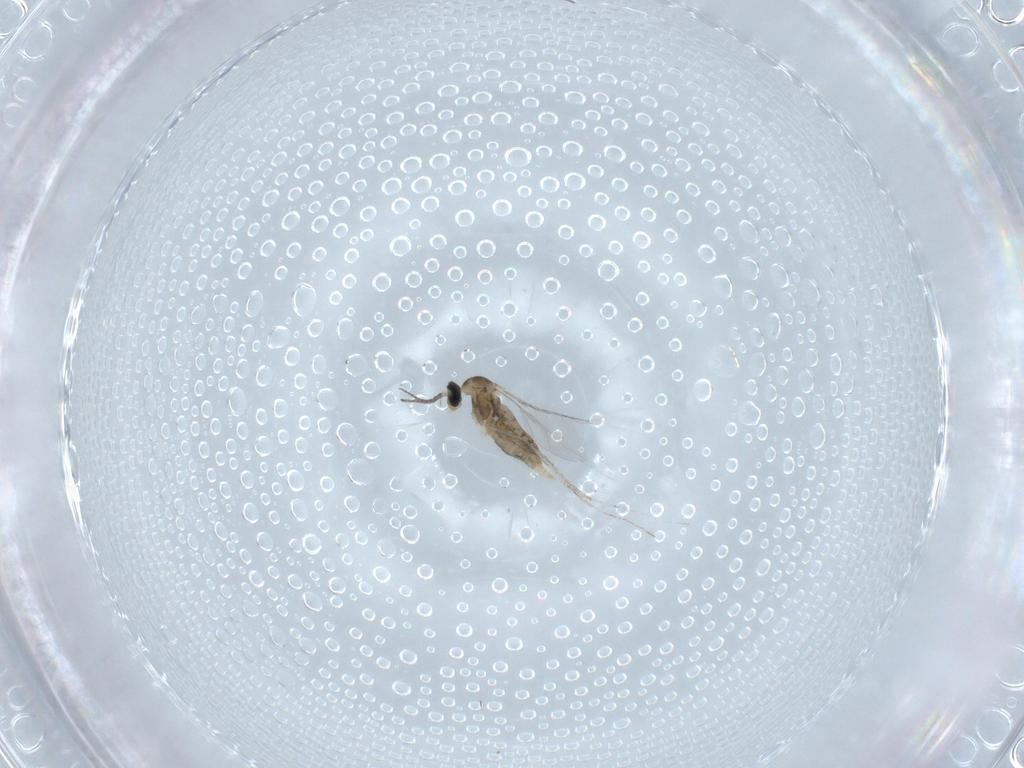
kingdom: Animalia
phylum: Arthropoda
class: Insecta
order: Diptera
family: Cecidomyiidae
